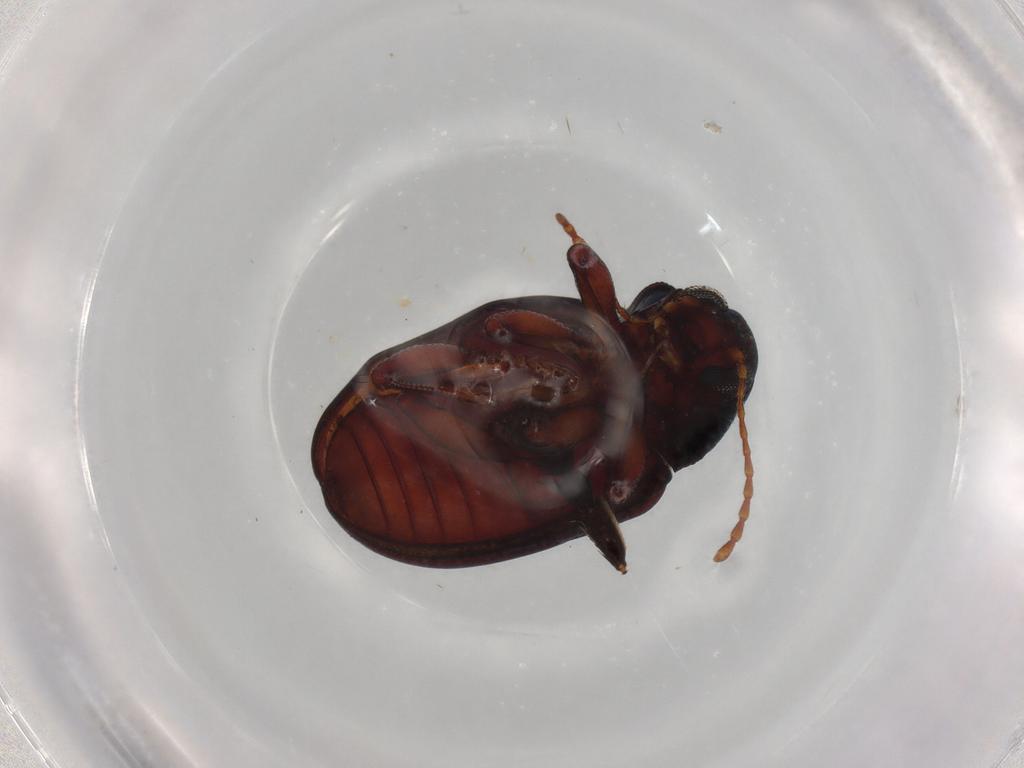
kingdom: Animalia
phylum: Arthropoda
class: Insecta
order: Coleoptera
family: Chrysomelidae
